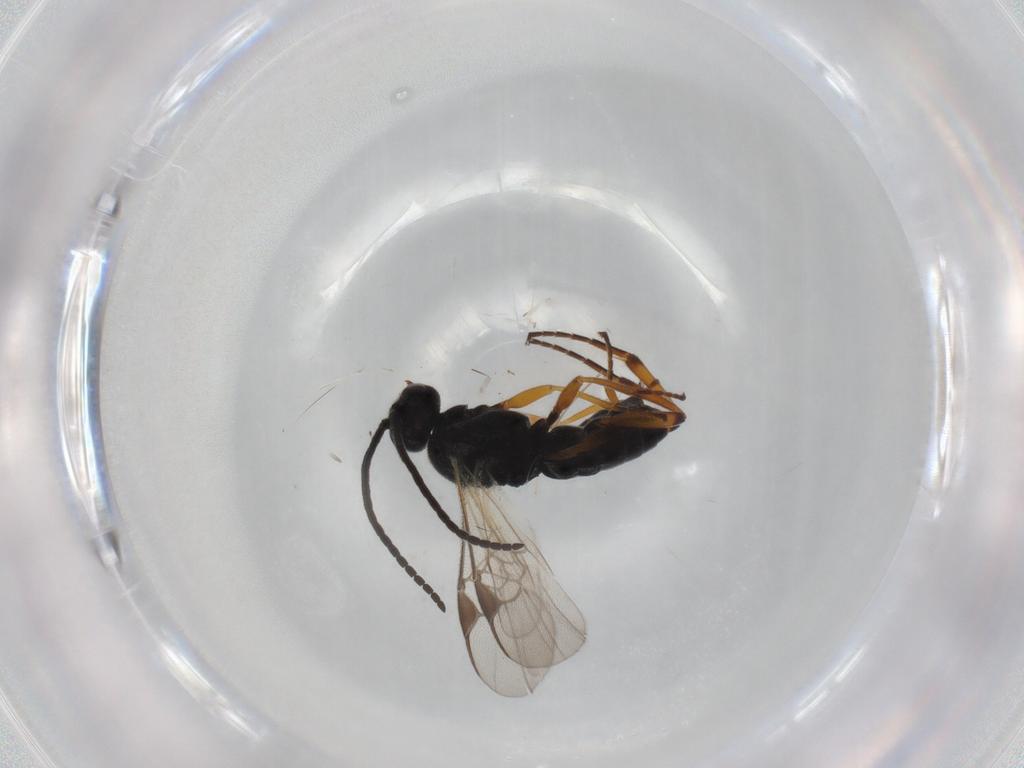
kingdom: Animalia
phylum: Arthropoda
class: Insecta
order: Hymenoptera
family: Braconidae
